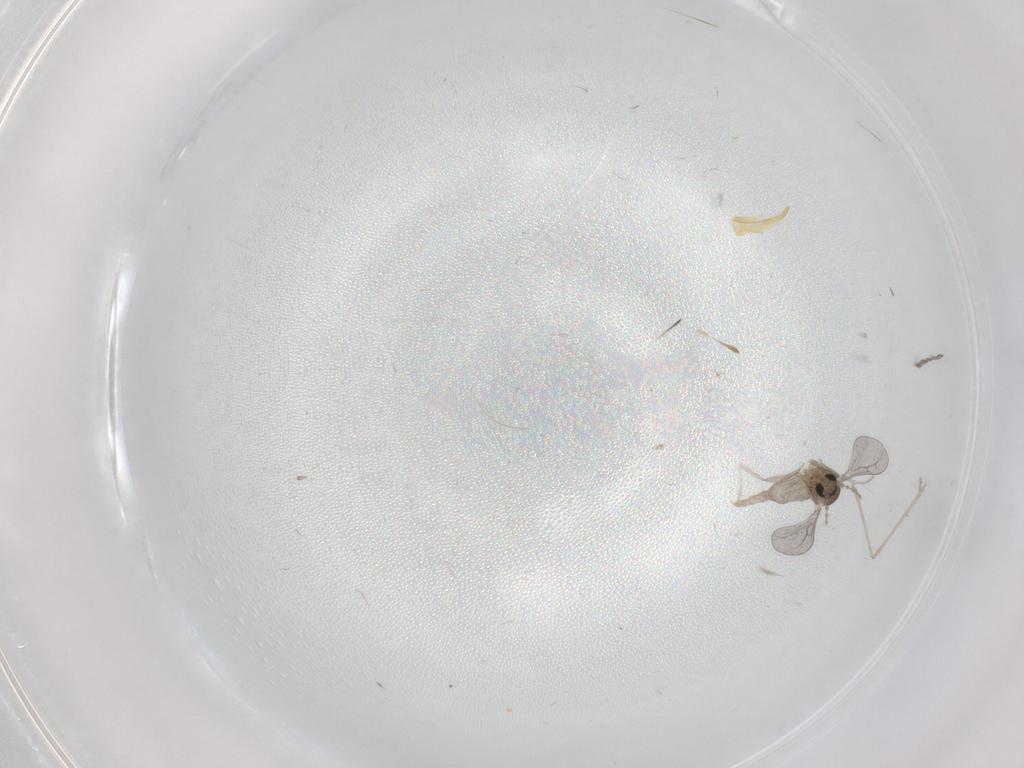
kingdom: Animalia
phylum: Arthropoda
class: Insecta
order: Diptera
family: Cecidomyiidae
